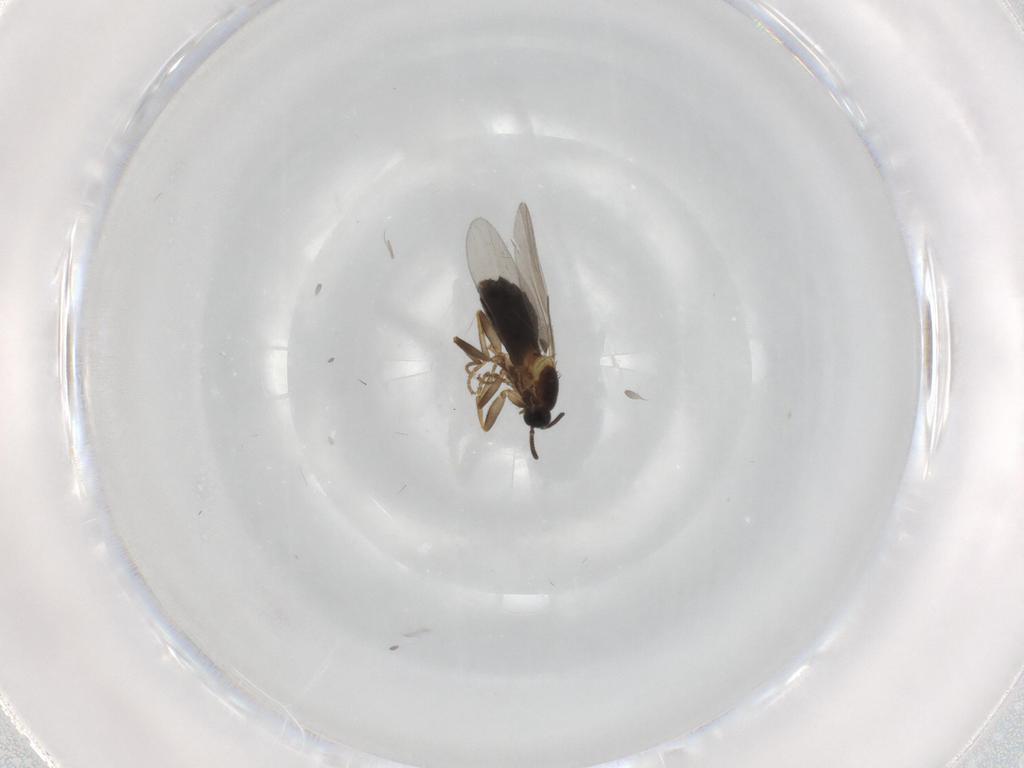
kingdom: Animalia
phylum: Arthropoda
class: Insecta
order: Diptera
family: Scatopsidae
